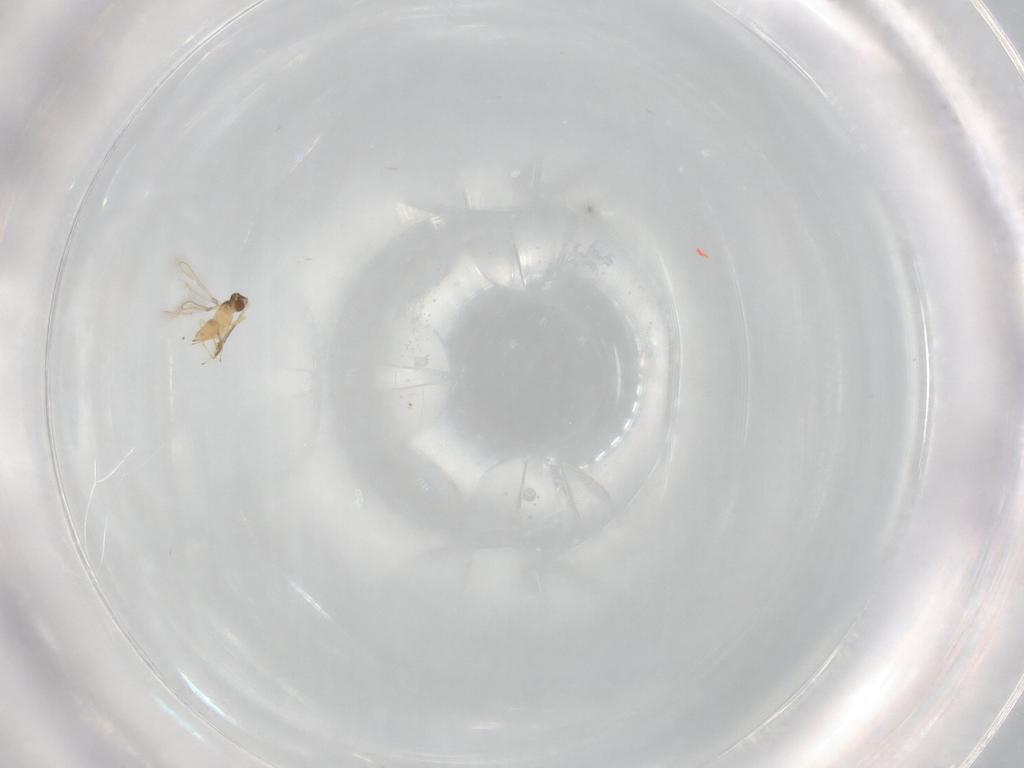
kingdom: Animalia
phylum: Arthropoda
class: Insecta
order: Hymenoptera
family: Mymaridae
